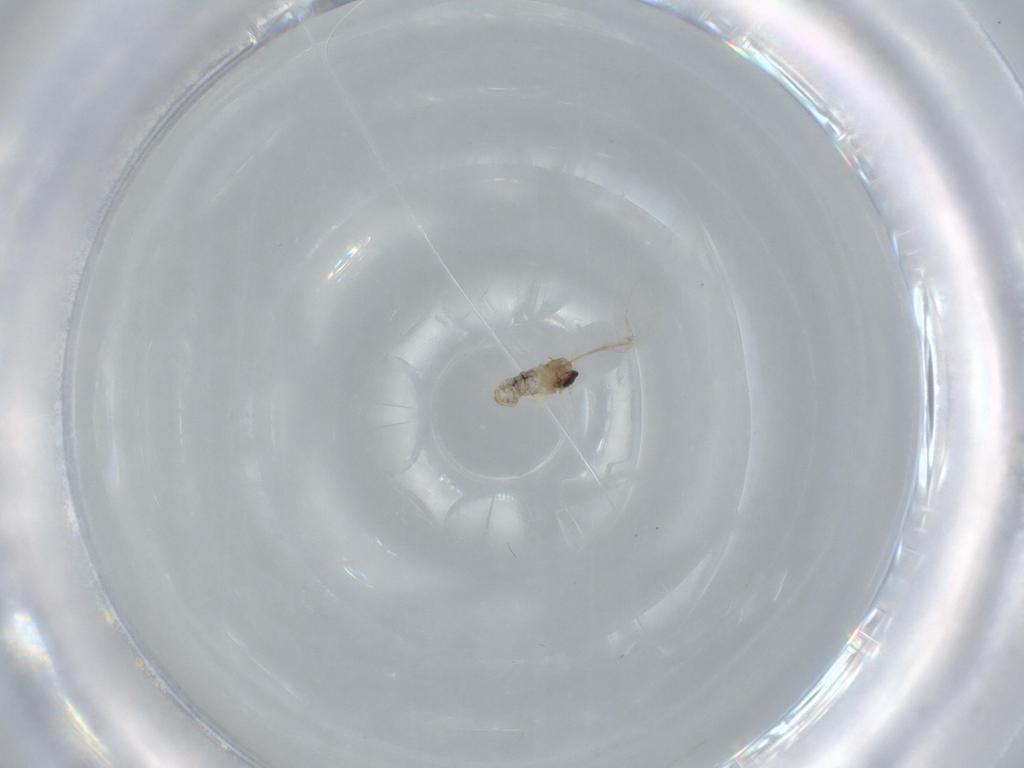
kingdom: Animalia
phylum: Arthropoda
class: Insecta
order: Diptera
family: Cecidomyiidae
